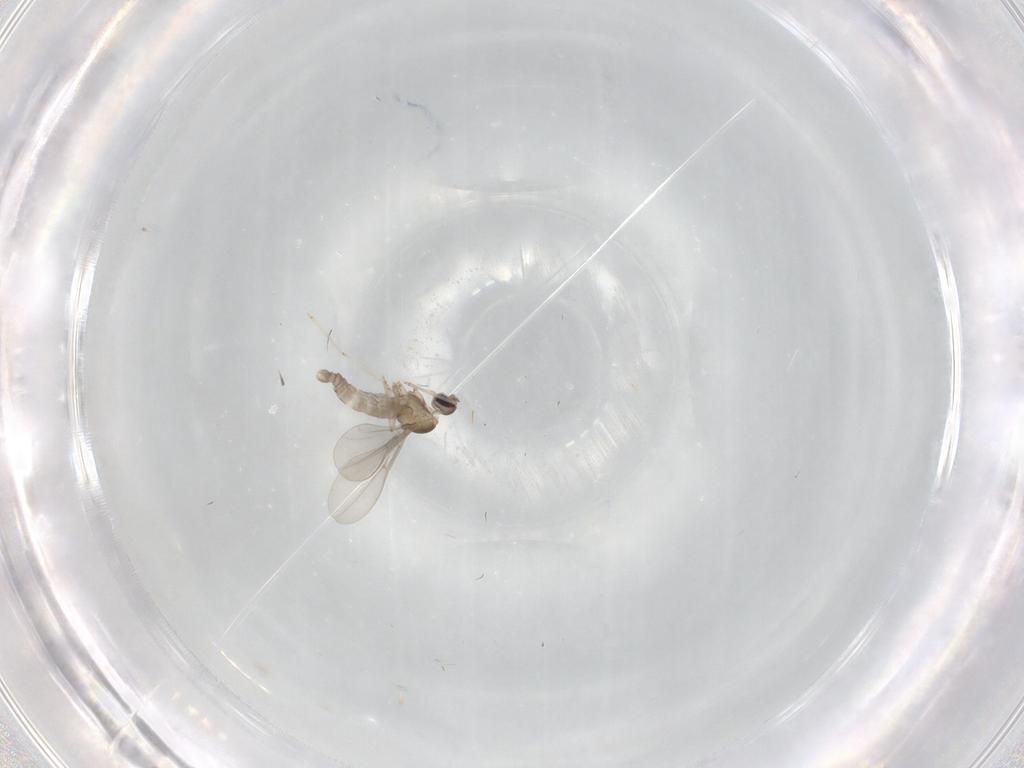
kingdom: Animalia
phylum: Arthropoda
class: Insecta
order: Diptera
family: Cecidomyiidae
